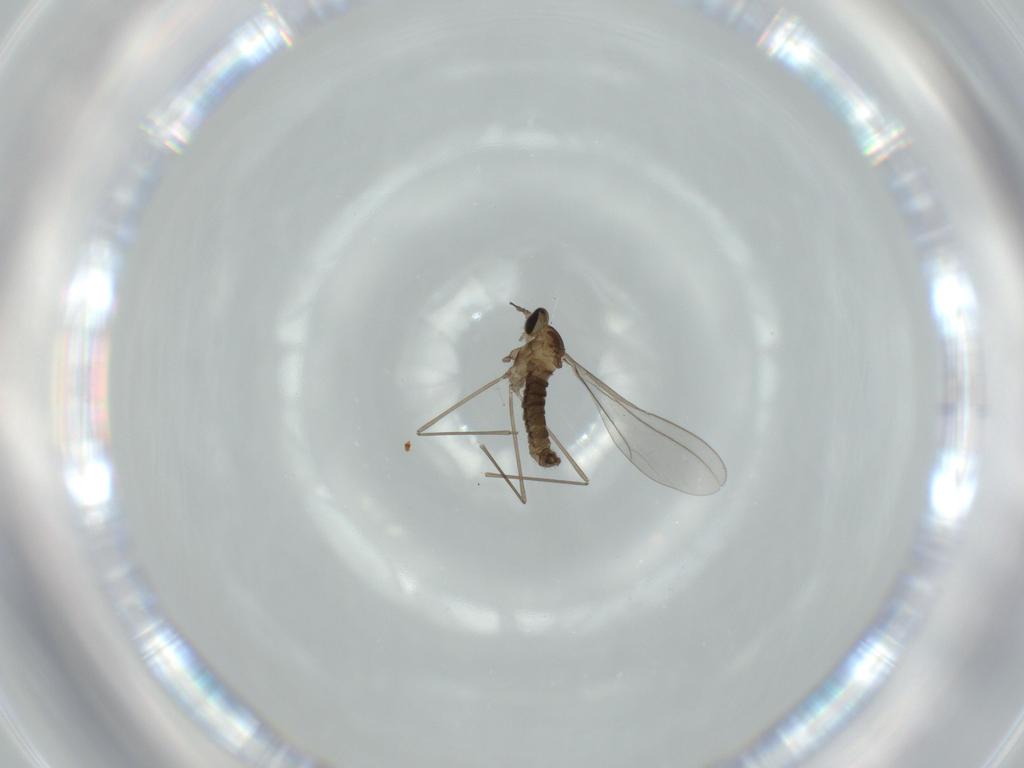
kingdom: Animalia
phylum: Arthropoda
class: Insecta
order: Diptera
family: Cecidomyiidae
